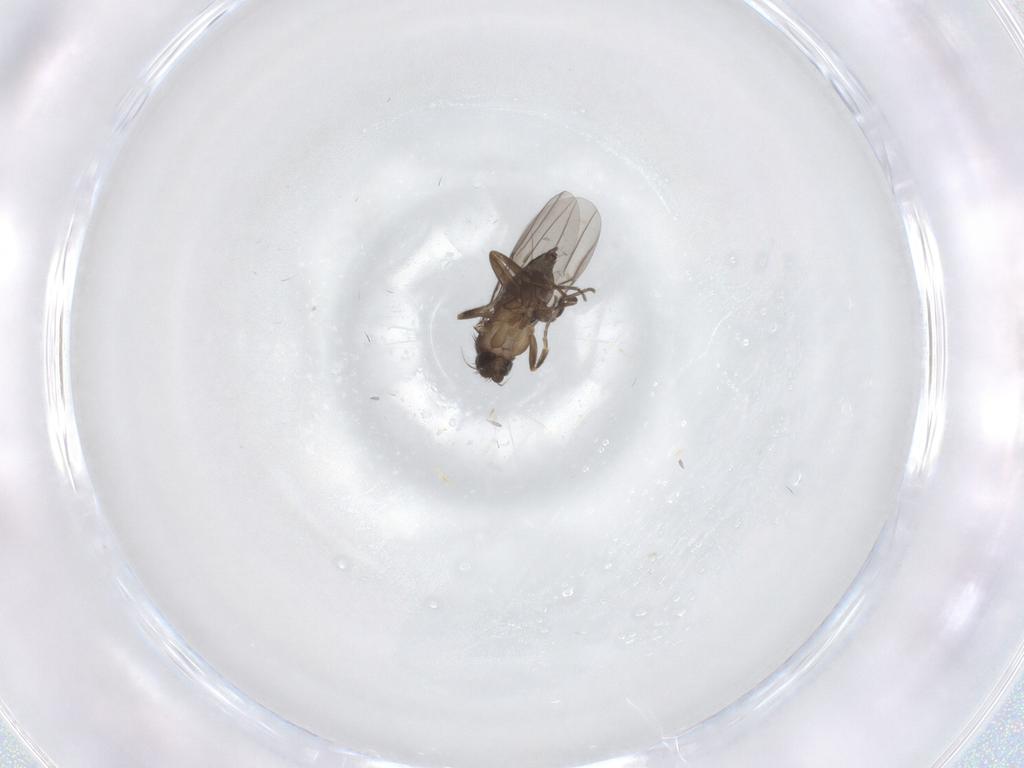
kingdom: Animalia
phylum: Arthropoda
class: Insecta
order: Diptera
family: Phoridae
